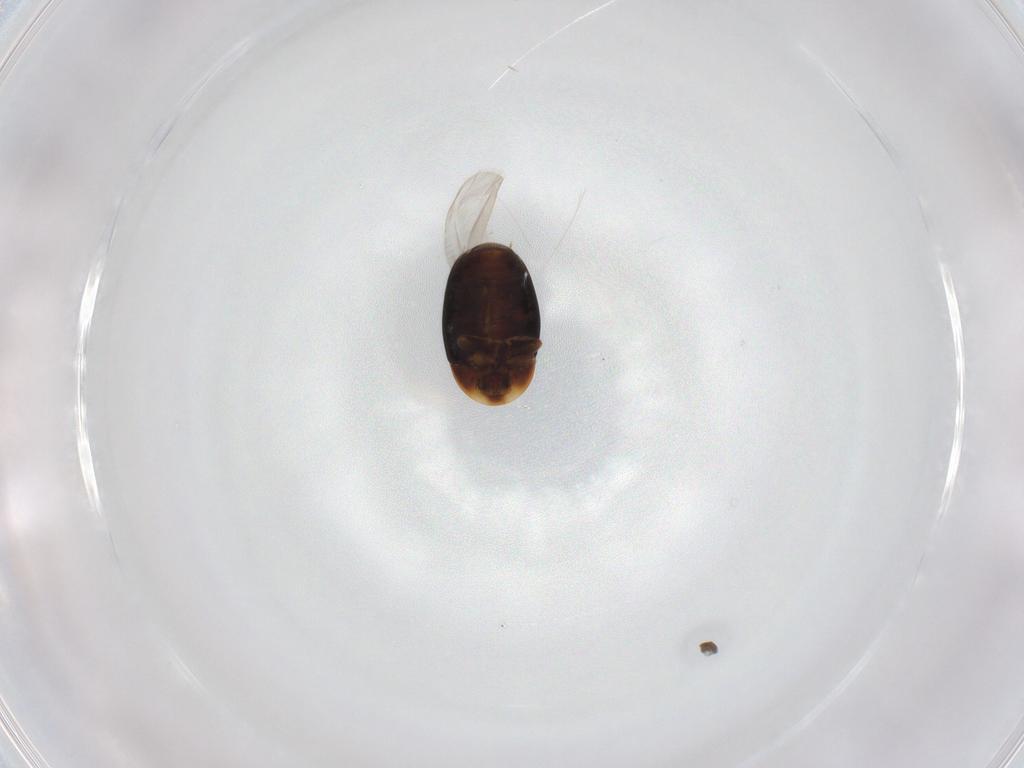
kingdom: Animalia
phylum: Arthropoda
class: Insecta
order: Coleoptera
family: Corylophidae
